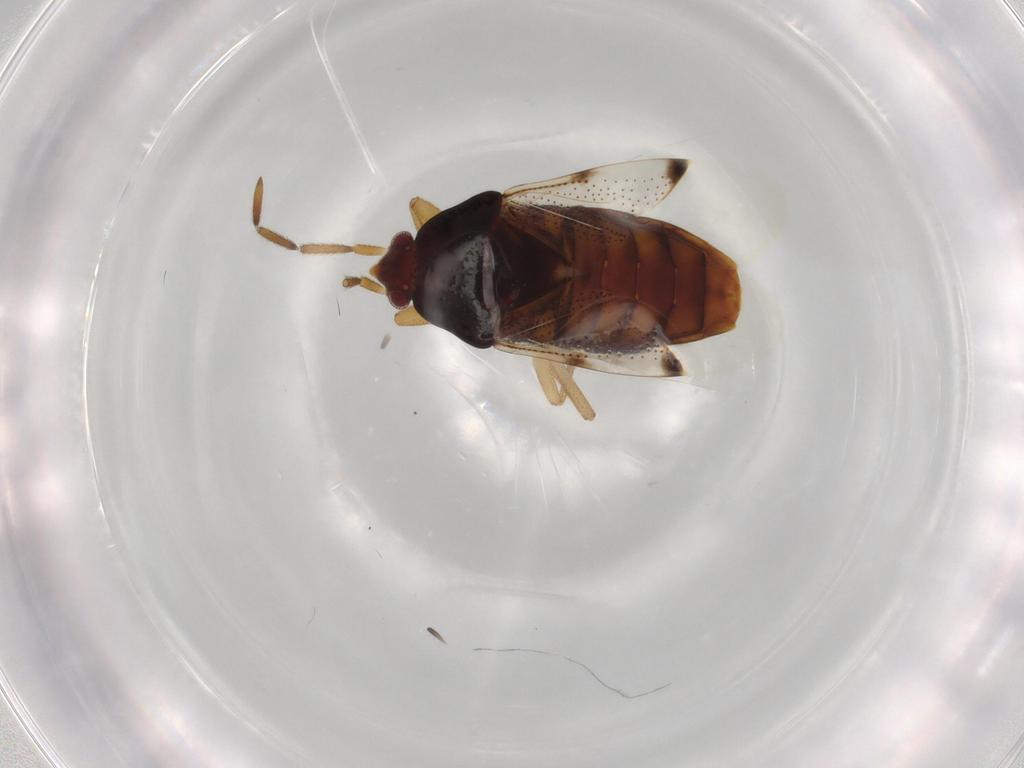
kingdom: Animalia
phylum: Arthropoda
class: Insecta
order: Hemiptera
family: Rhyparochromidae
